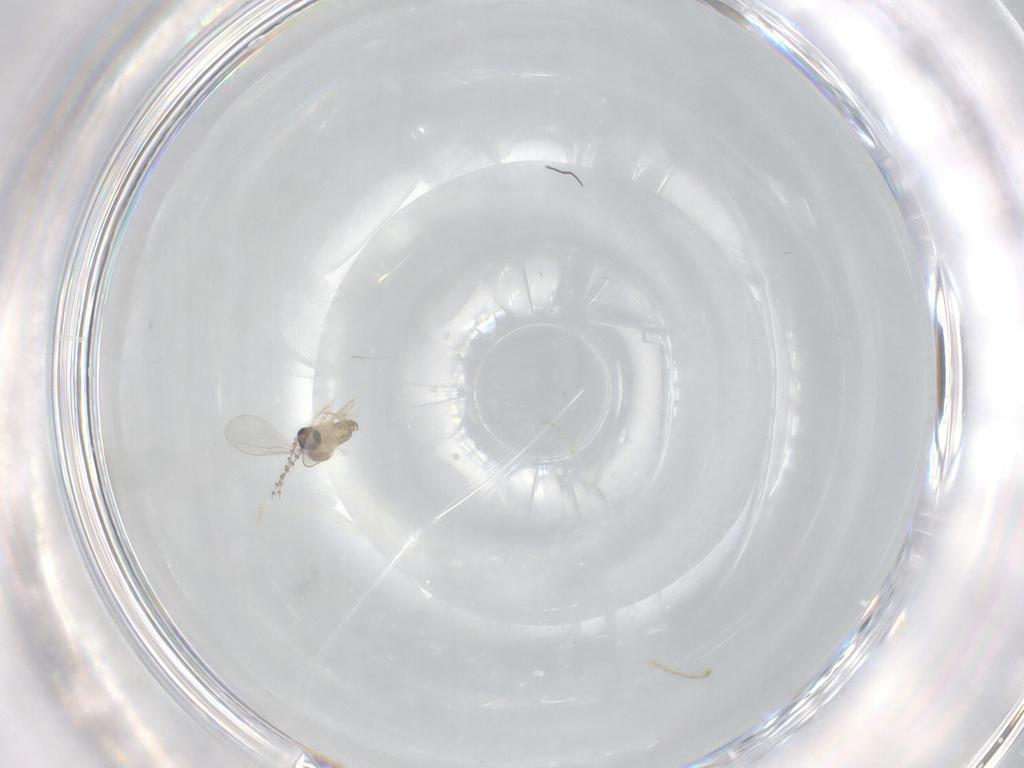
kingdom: Animalia
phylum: Arthropoda
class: Insecta
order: Diptera
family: Cecidomyiidae
